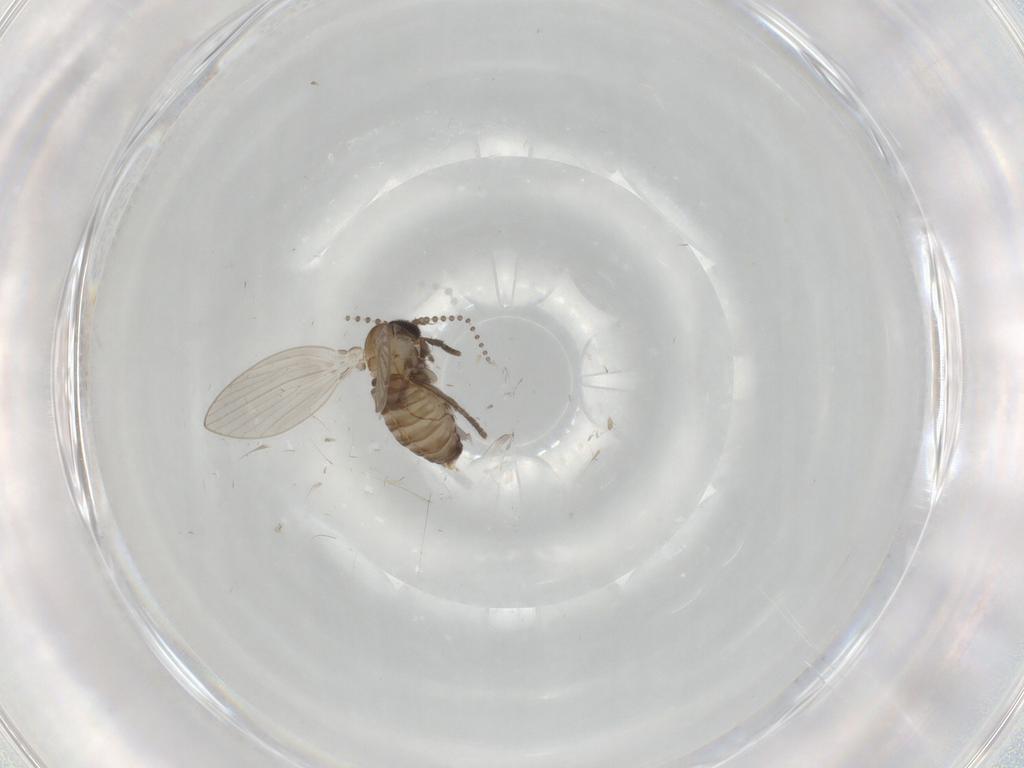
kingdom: Animalia
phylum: Arthropoda
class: Insecta
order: Diptera
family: Psychodidae
